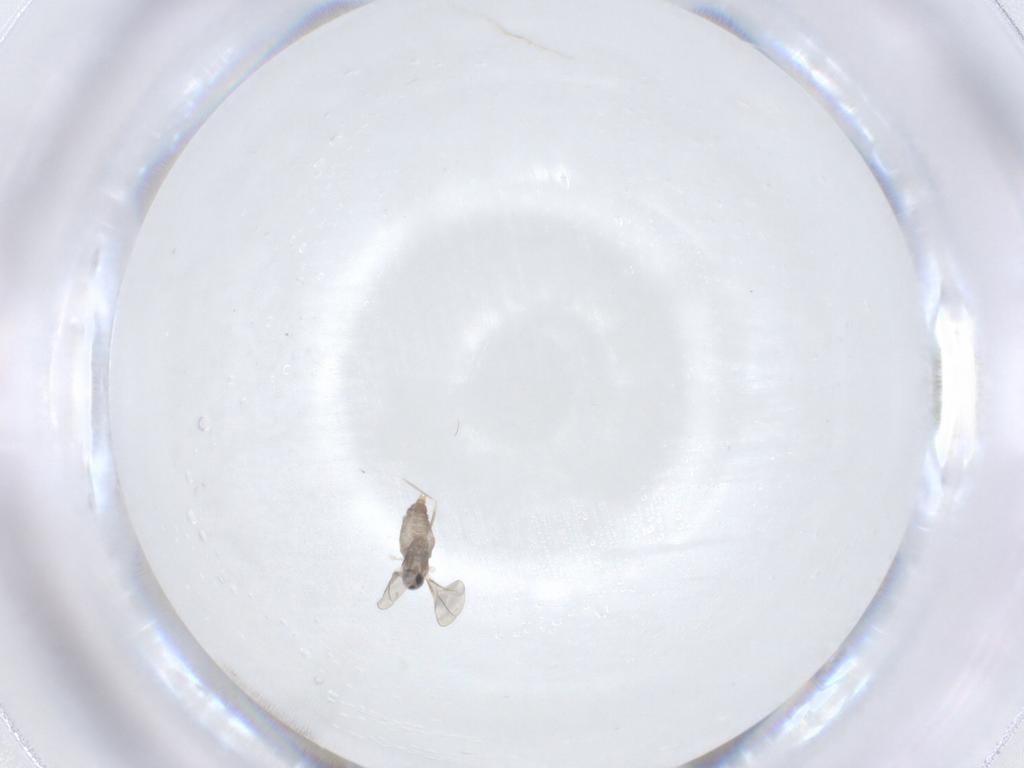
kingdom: Animalia
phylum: Arthropoda
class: Insecta
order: Diptera
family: Cecidomyiidae
